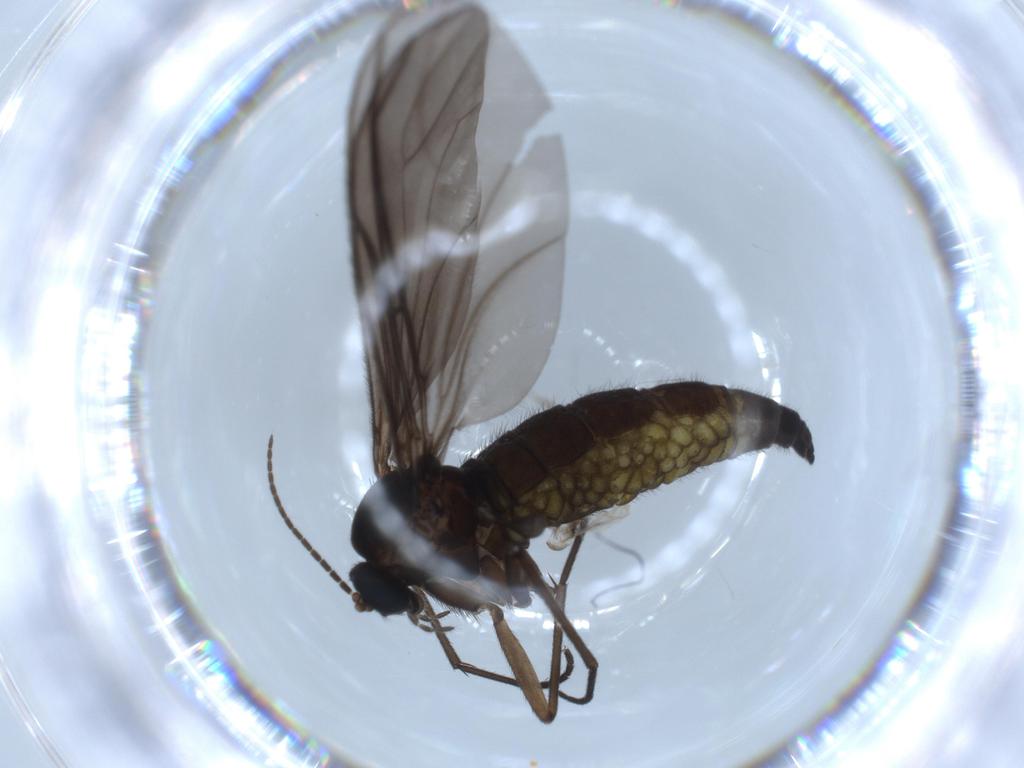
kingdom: Animalia
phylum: Arthropoda
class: Insecta
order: Diptera
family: Sciaridae
